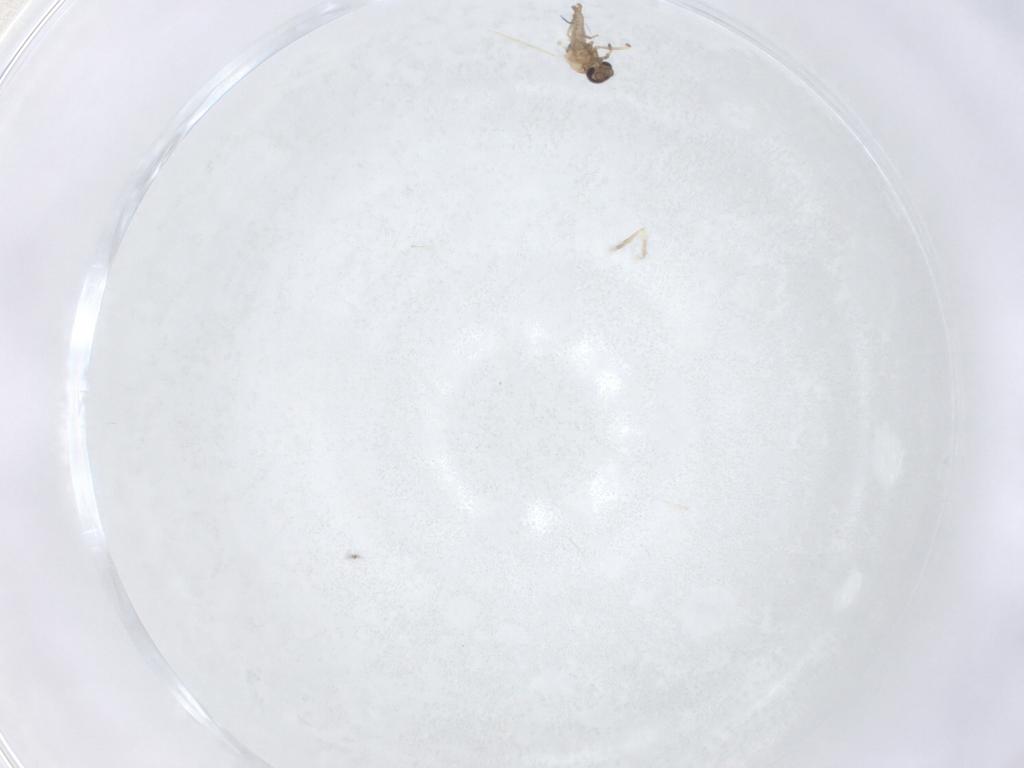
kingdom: Animalia
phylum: Arthropoda
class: Insecta
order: Diptera
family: Ceratopogonidae
